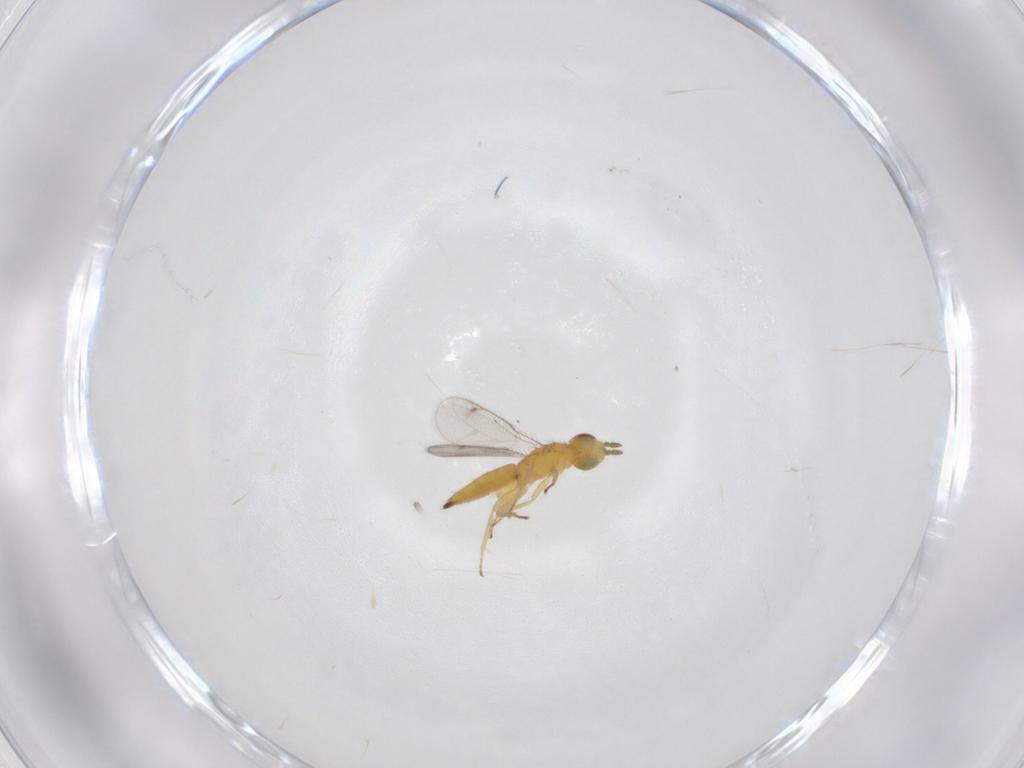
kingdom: Animalia
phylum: Arthropoda
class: Insecta
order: Hymenoptera
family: Eulophidae
